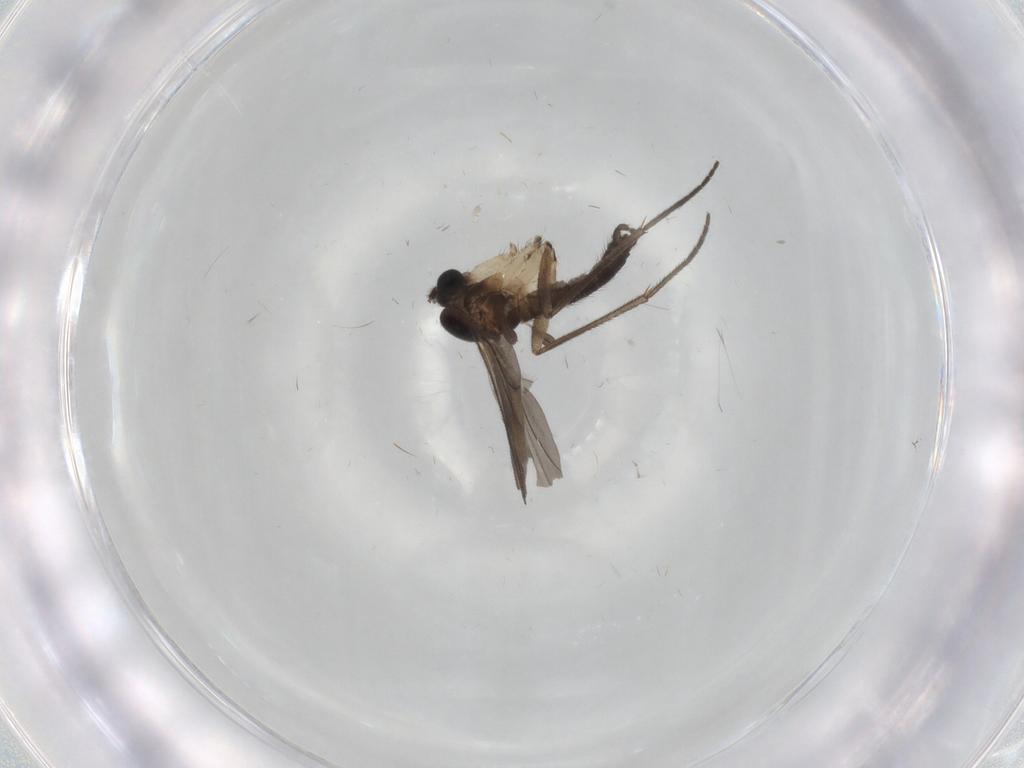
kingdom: Animalia
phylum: Arthropoda
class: Insecta
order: Diptera
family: Sciaridae
